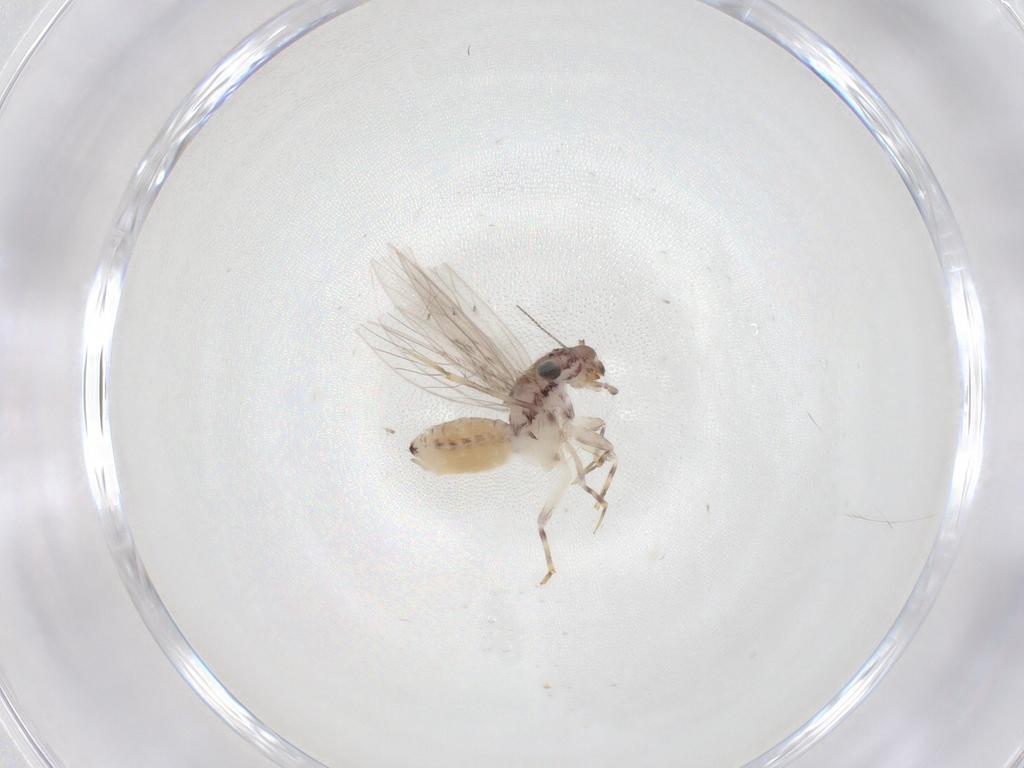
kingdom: Animalia
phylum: Arthropoda
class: Insecta
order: Psocodea
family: Lepidopsocidae
